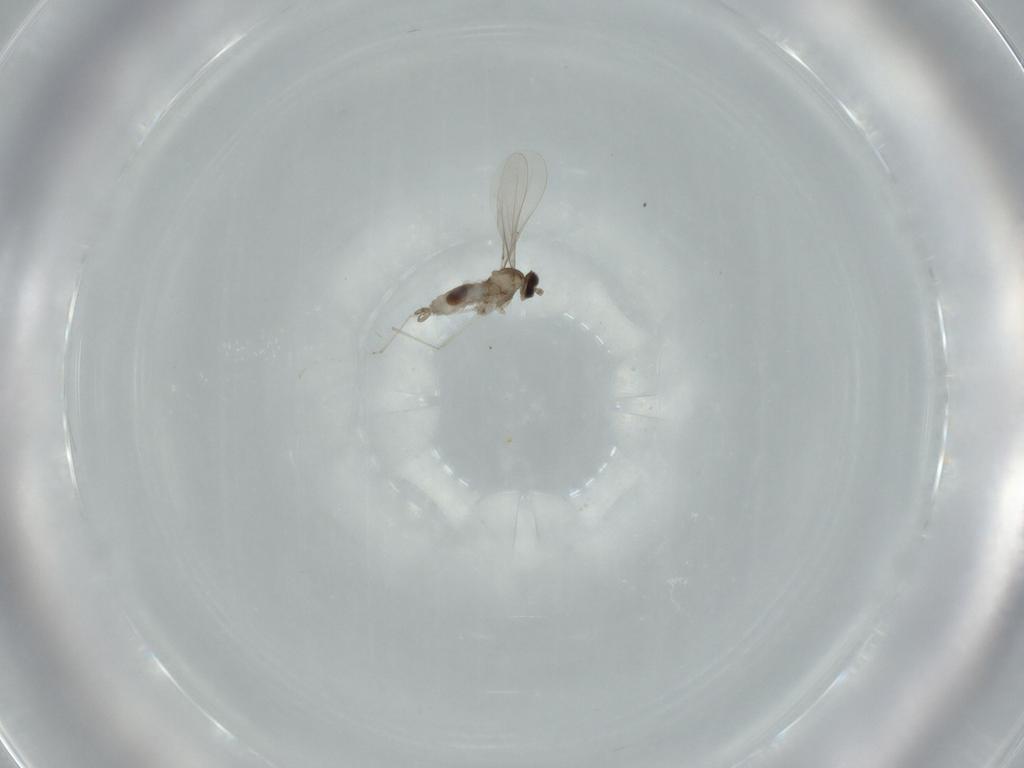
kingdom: Animalia
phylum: Arthropoda
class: Insecta
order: Diptera
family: Cecidomyiidae
